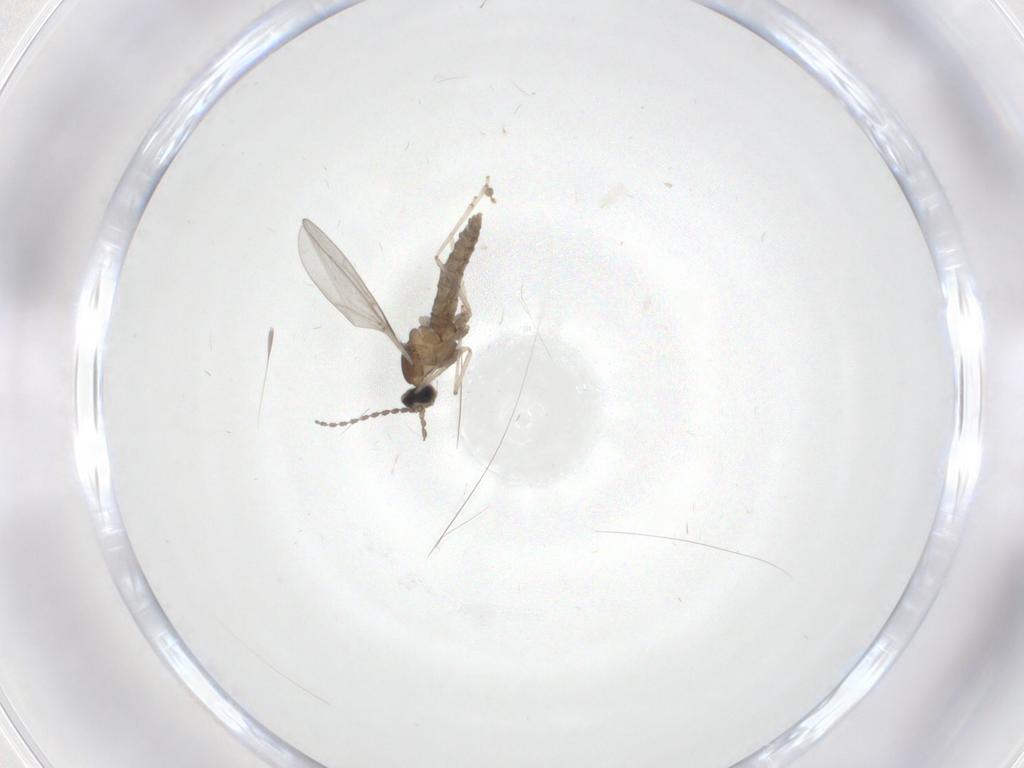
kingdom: Animalia
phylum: Arthropoda
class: Insecta
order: Diptera
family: Cecidomyiidae
